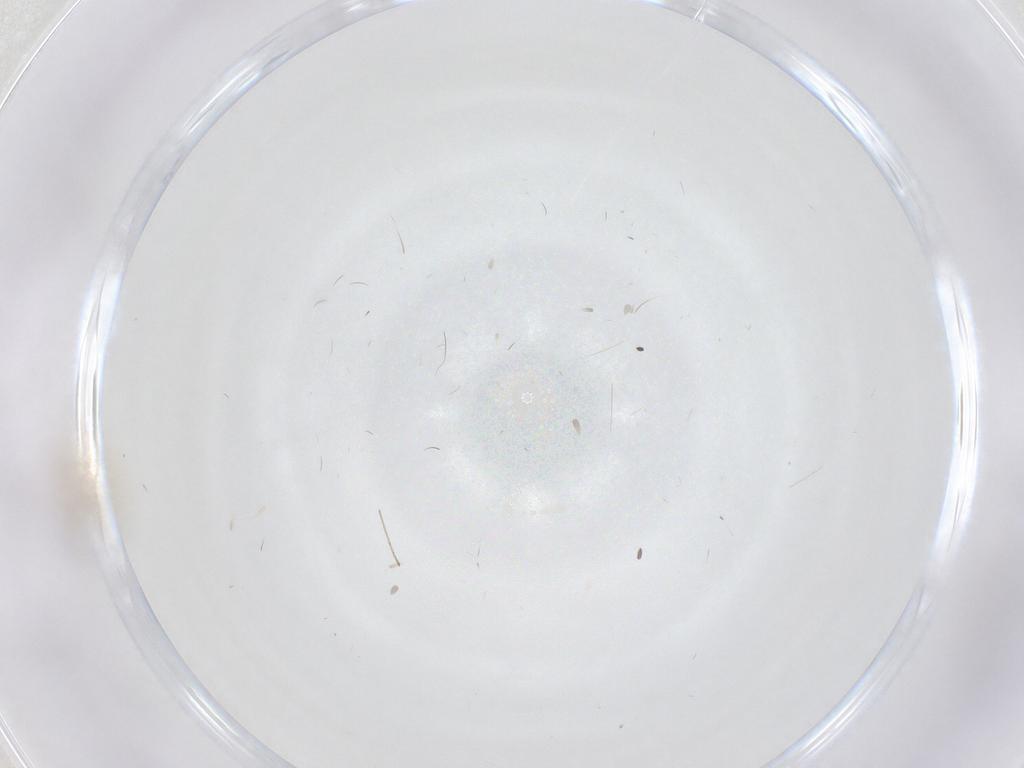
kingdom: Animalia
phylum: Arthropoda
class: Collembola
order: Entomobryomorpha
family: Entomobryidae
